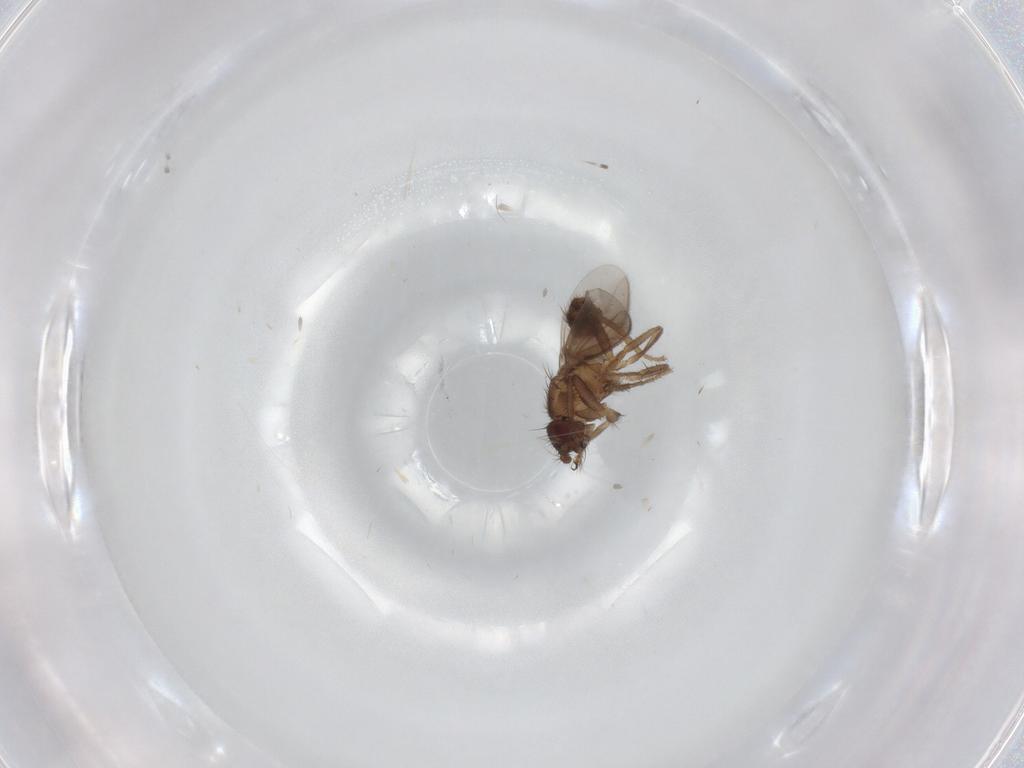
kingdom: Animalia
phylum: Arthropoda
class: Insecta
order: Diptera
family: Sphaeroceridae
